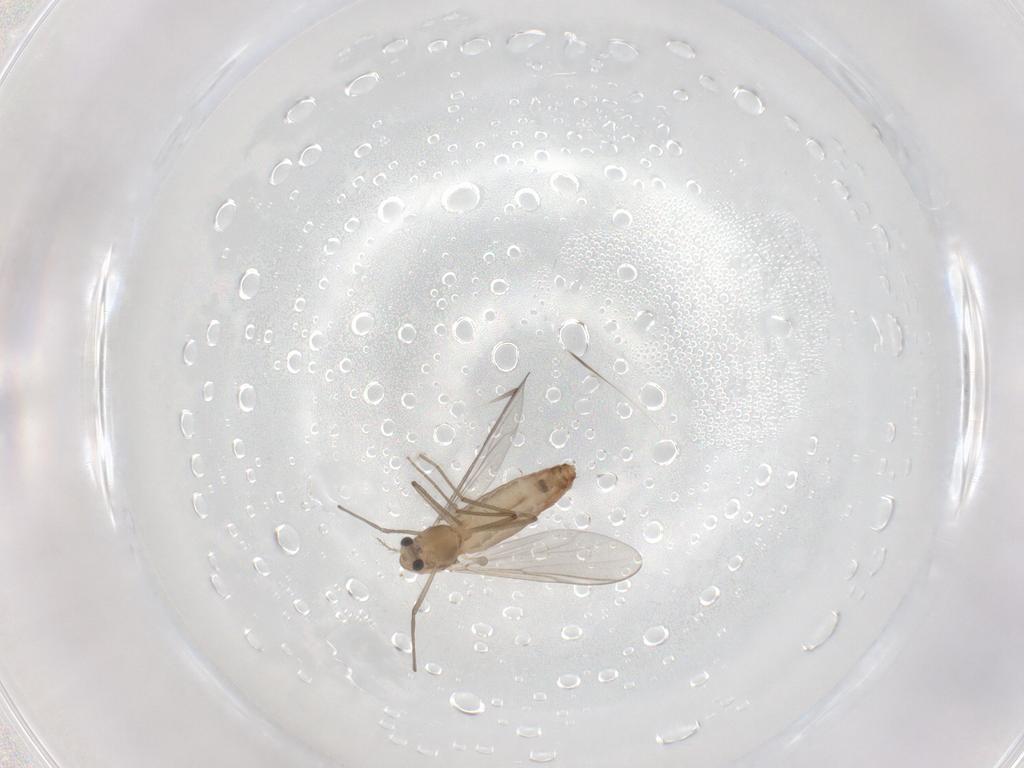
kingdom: Animalia
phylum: Arthropoda
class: Insecta
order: Diptera
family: Chironomidae
